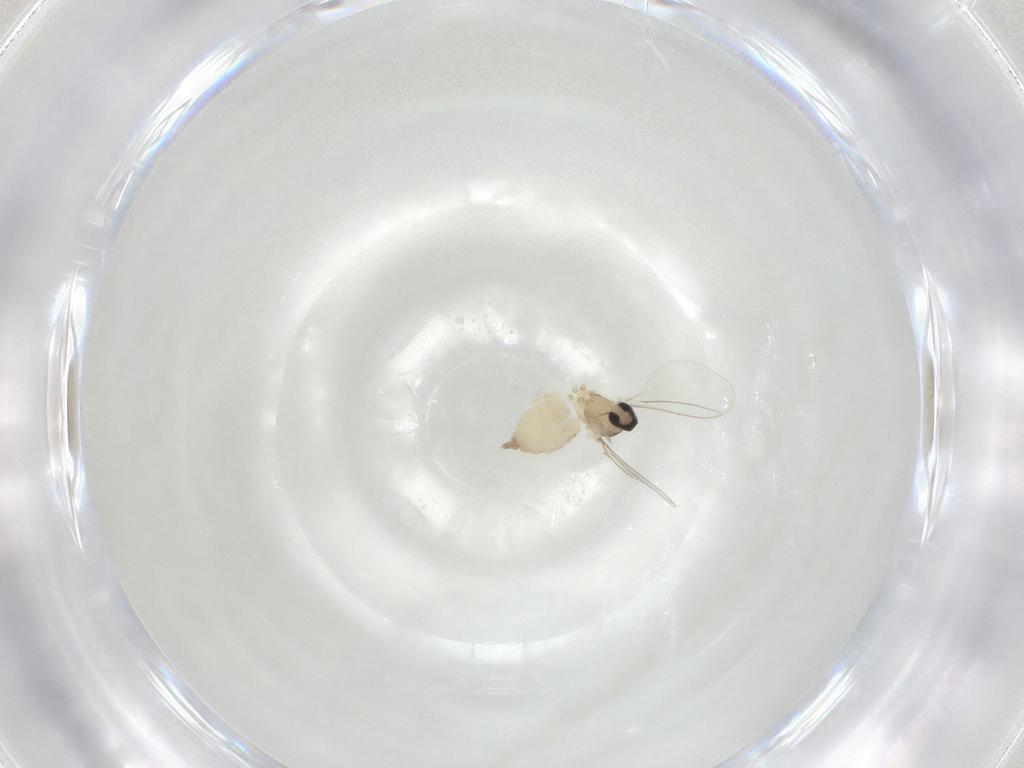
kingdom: Animalia
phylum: Arthropoda
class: Insecta
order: Diptera
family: Cecidomyiidae
